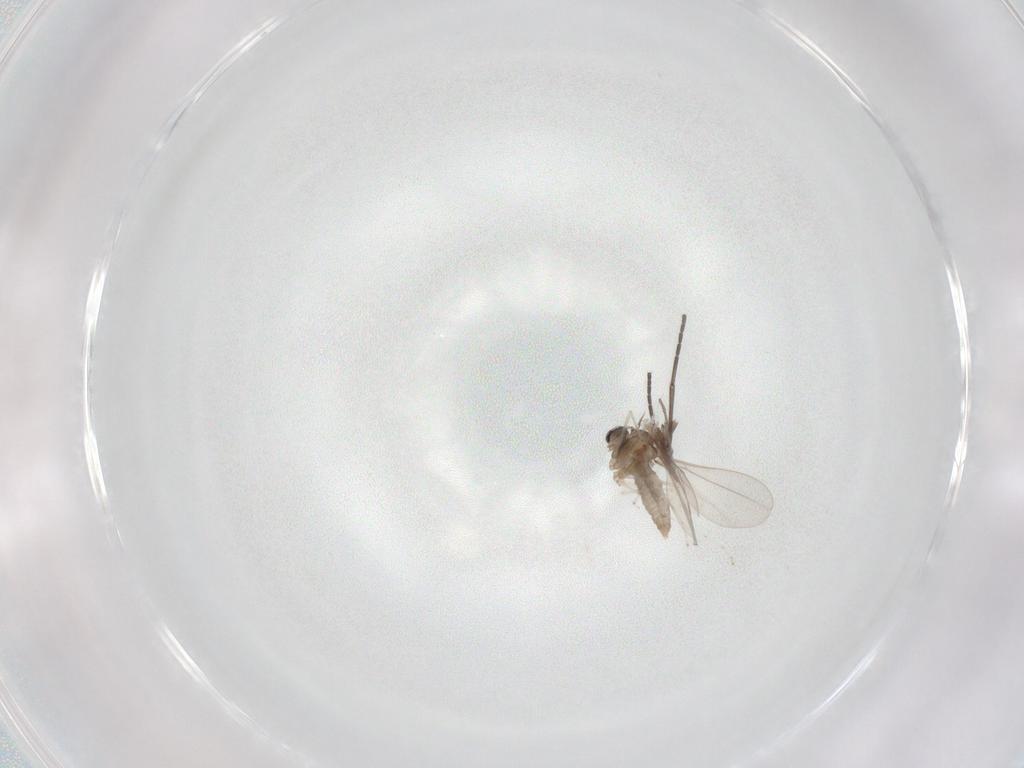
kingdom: Animalia
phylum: Arthropoda
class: Insecta
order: Diptera
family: Cecidomyiidae
